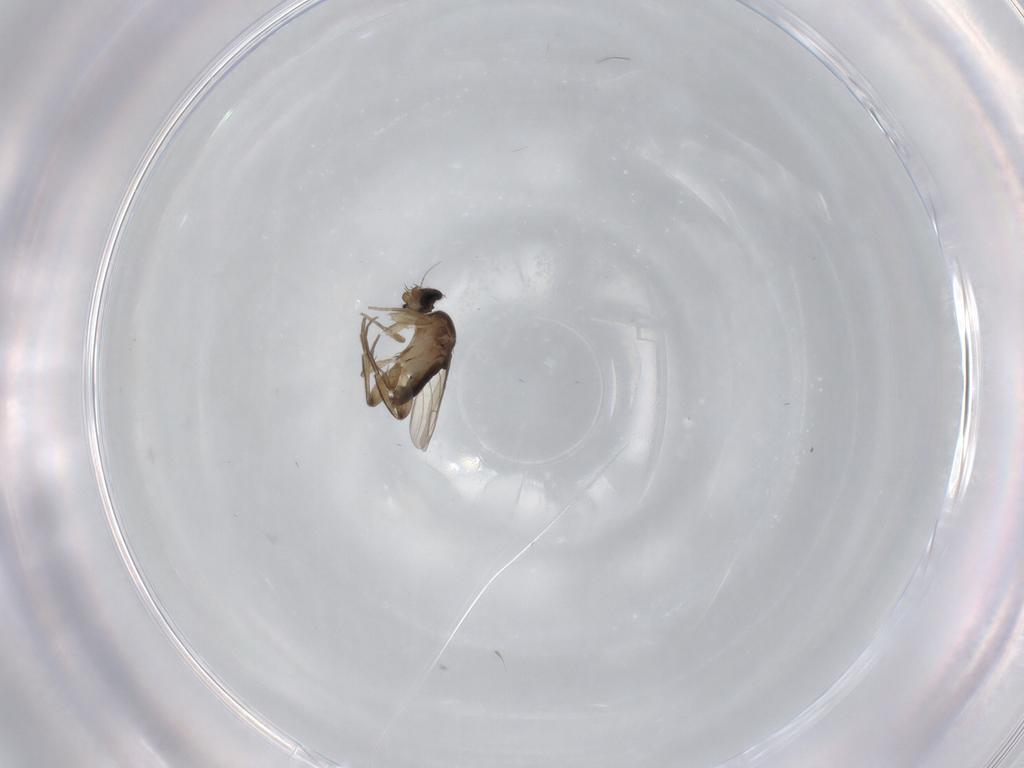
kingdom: Animalia
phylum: Arthropoda
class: Insecta
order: Diptera
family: Phoridae
